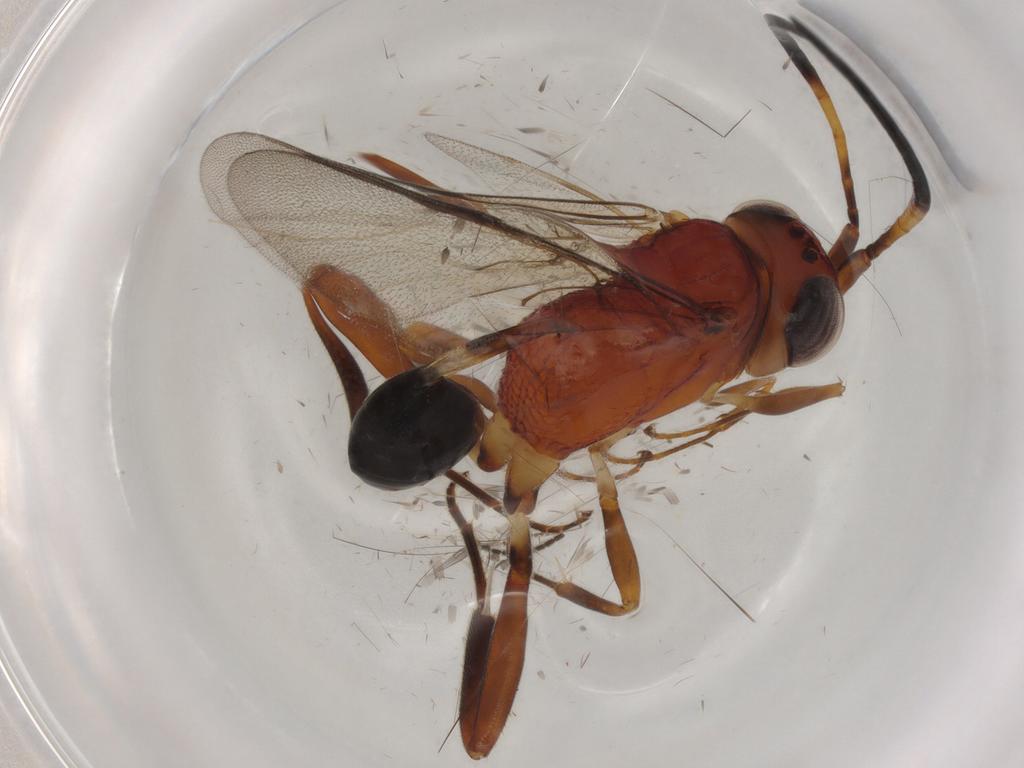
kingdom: Animalia
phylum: Arthropoda
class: Insecta
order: Hymenoptera
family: Evaniidae
